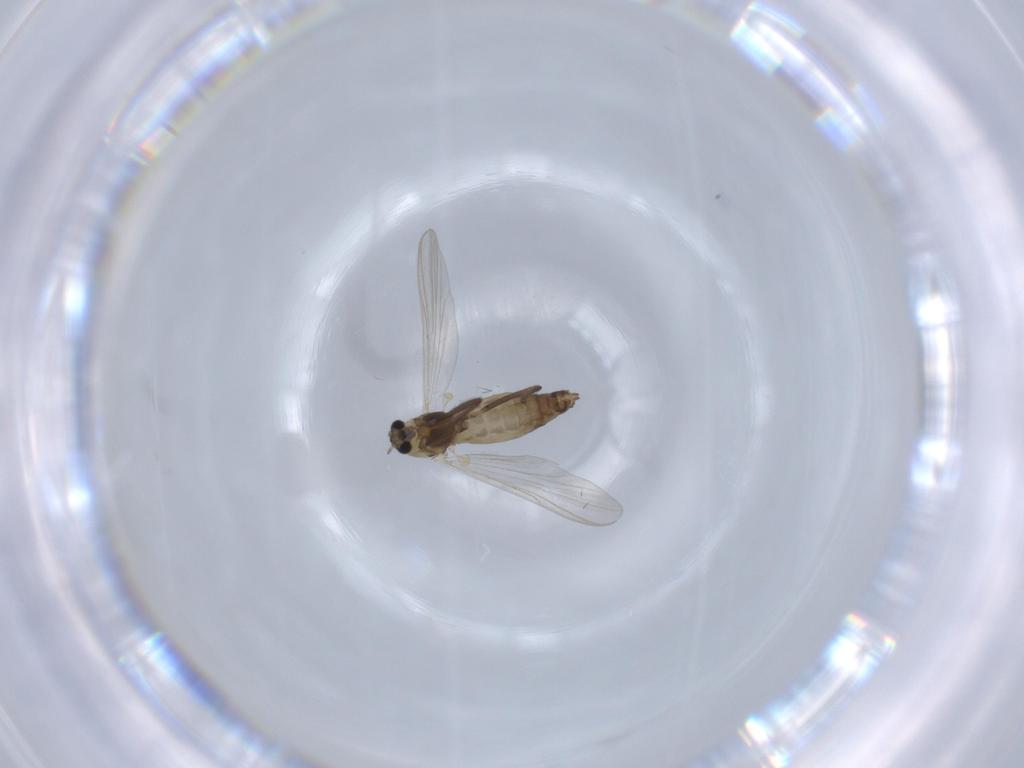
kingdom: Animalia
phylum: Arthropoda
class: Insecta
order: Diptera
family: Chironomidae
